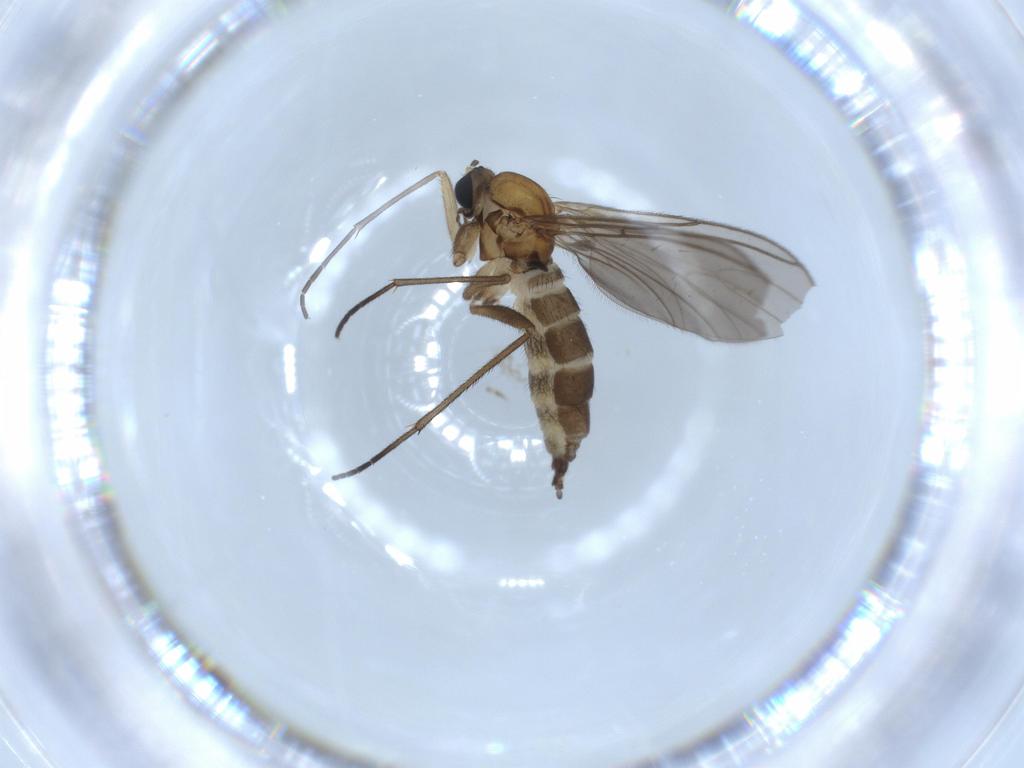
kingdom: Animalia
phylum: Arthropoda
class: Insecta
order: Diptera
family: Sciaridae
